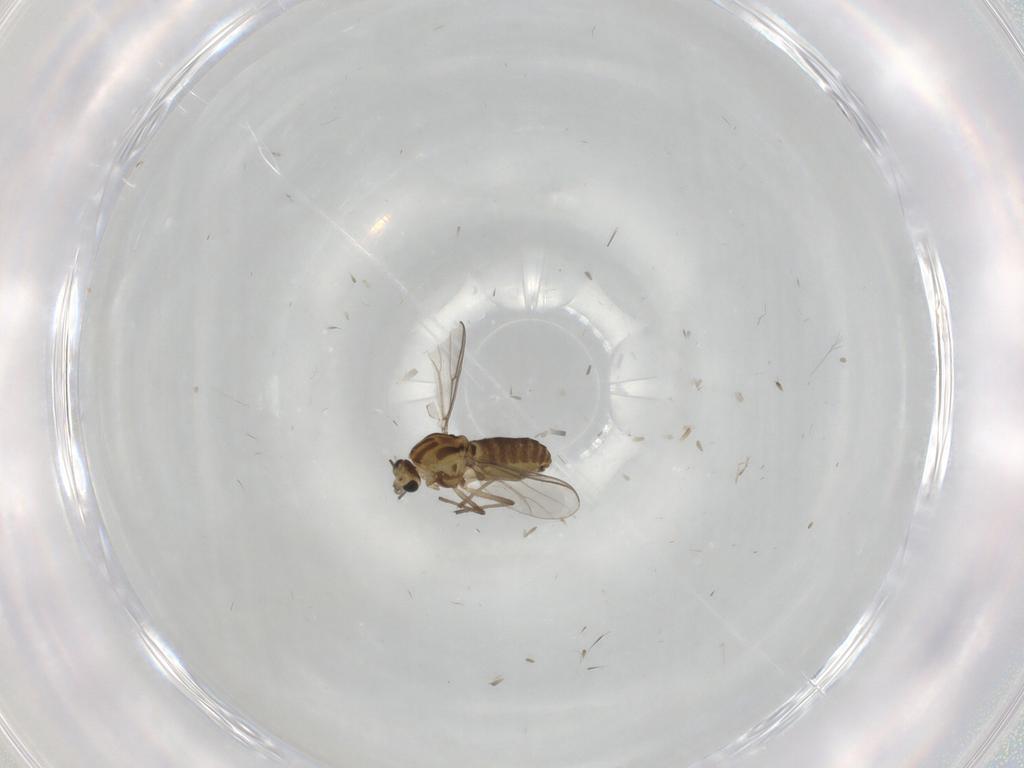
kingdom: Animalia
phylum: Arthropoda
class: Insecta
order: Diptera
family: Chironomidae
